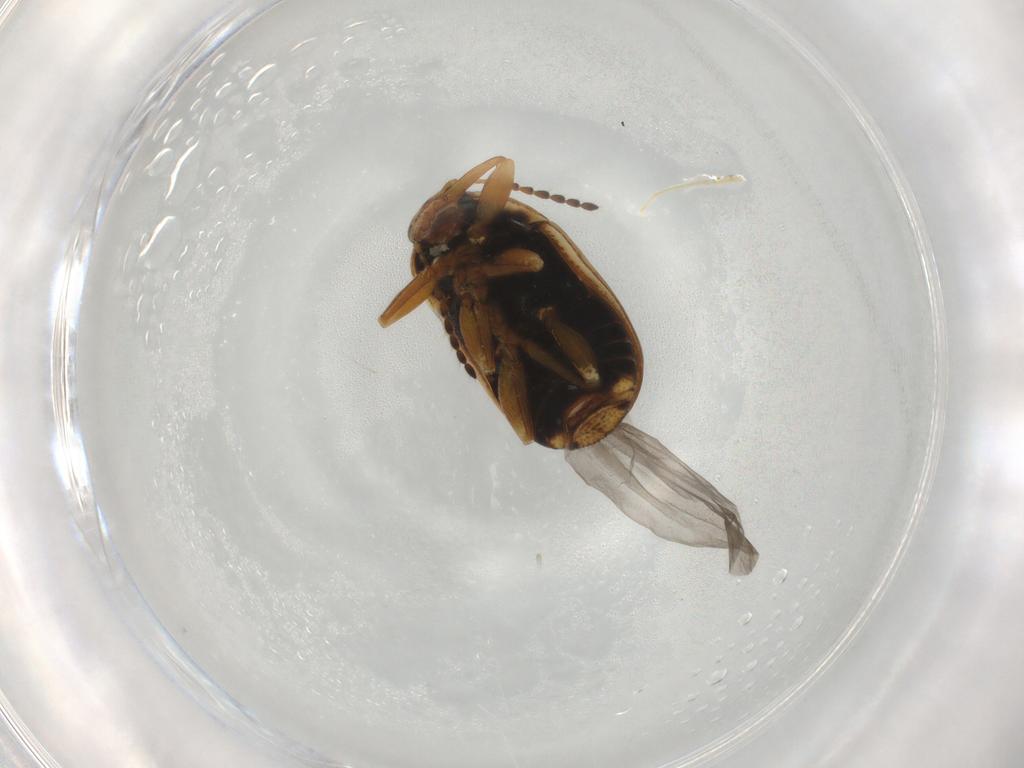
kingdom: Animalia
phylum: Arthropoda
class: Insecta
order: Coleoptera
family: Chrysomelidae
